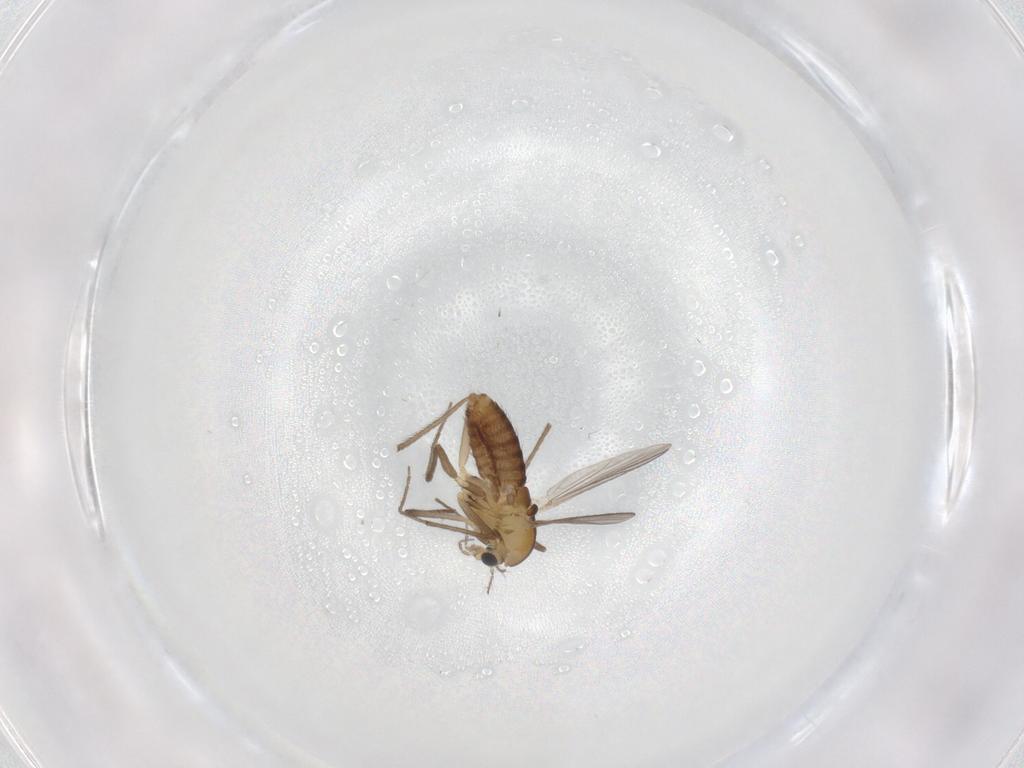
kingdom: Animalia
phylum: Arthropoda
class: Insecta
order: Diptera
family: Chironomidae
